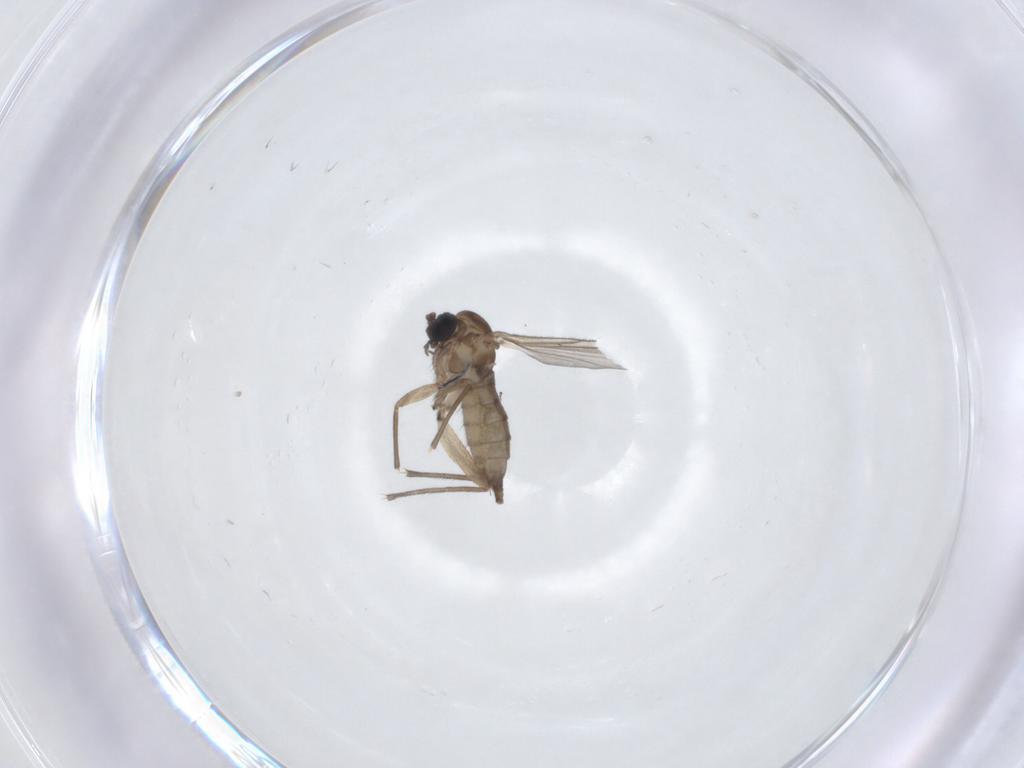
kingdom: Animalia
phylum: Arthropoda
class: Insecta
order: Diptera
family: Sciaridae
